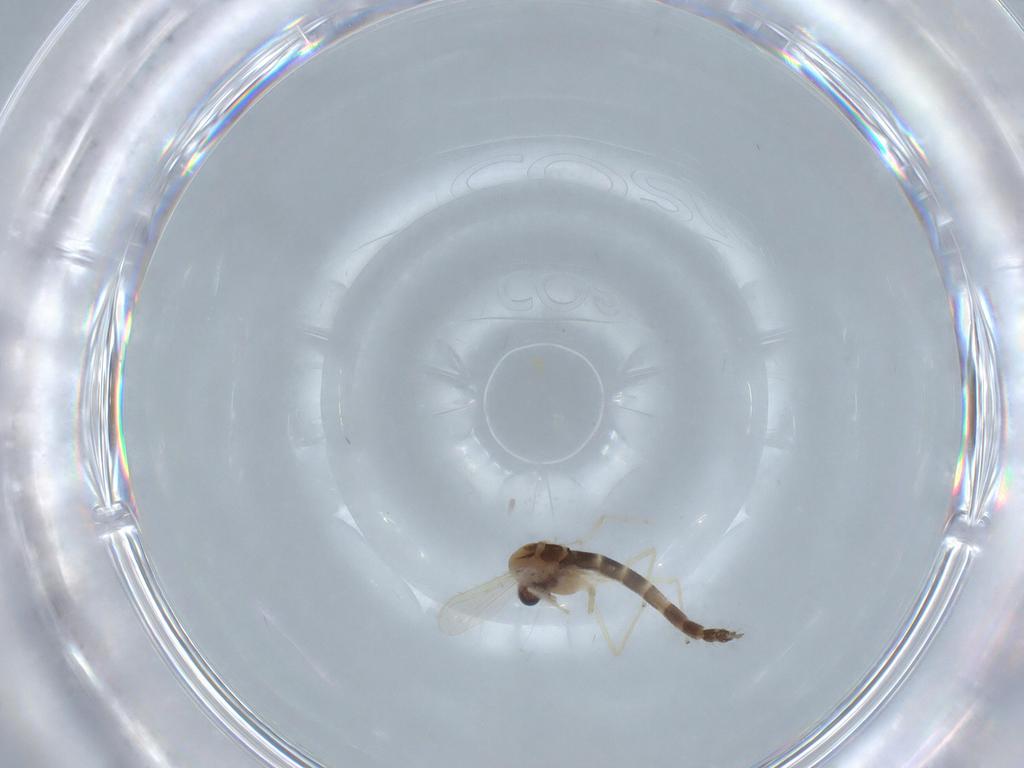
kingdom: Animalia
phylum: Arthropoda
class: Insecta
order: Diptera
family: Chironomidae
